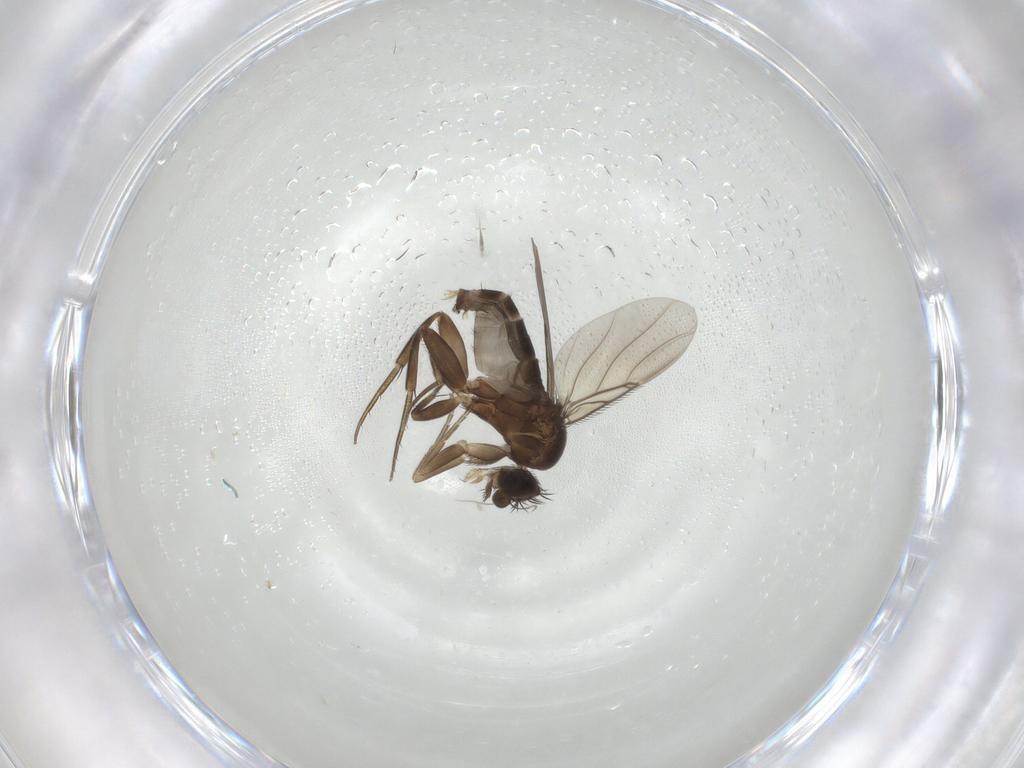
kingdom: Animalia
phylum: Arthropoda
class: Insecta
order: Diptera
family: Phoridae
